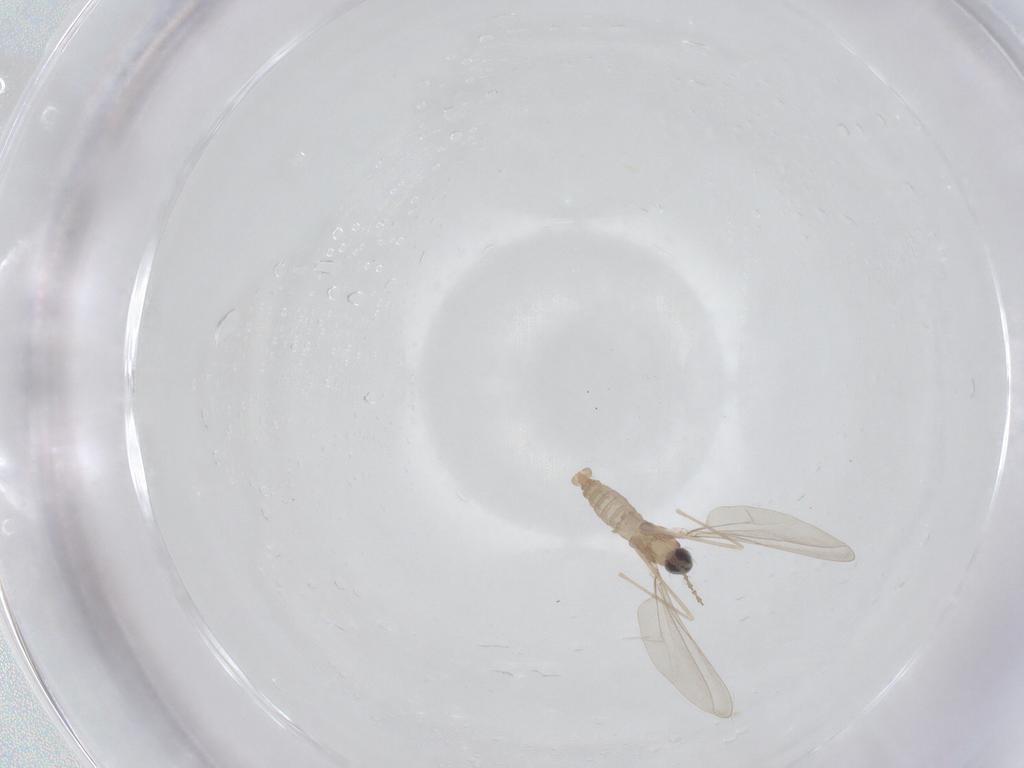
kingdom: Animalia
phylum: Arthropoda
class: Insecta
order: Diptera
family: Cecidomyiidae
